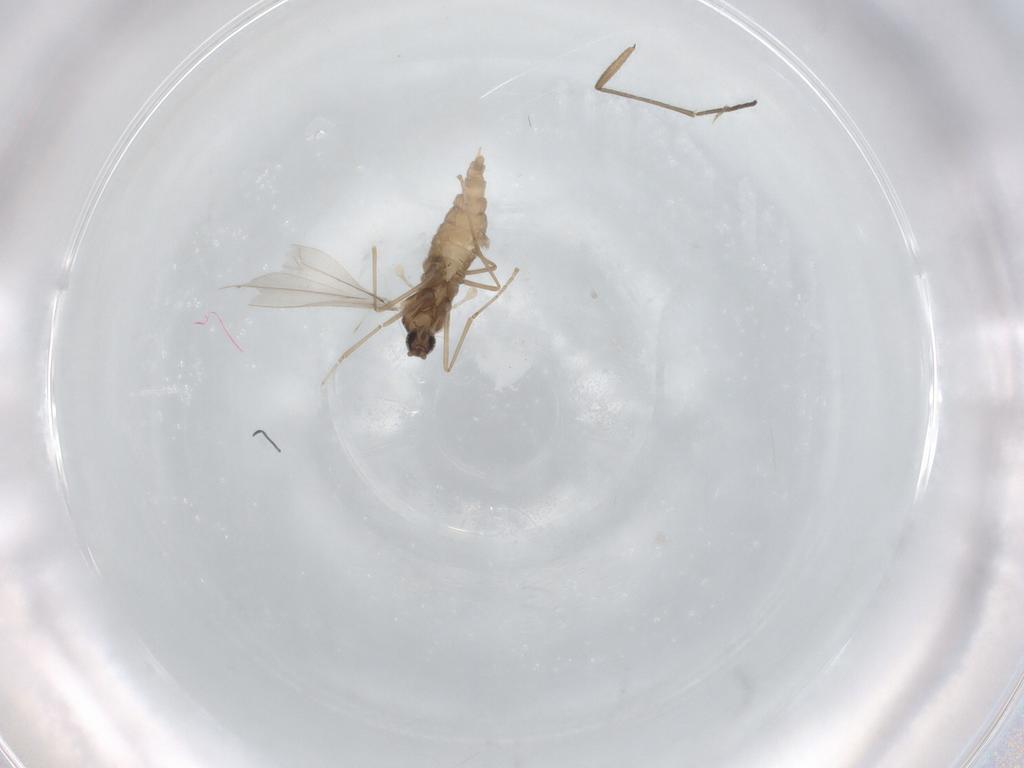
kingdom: Animalia
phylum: Arthropoda
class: Insecta
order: Diptera
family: Cecidomyiidae
